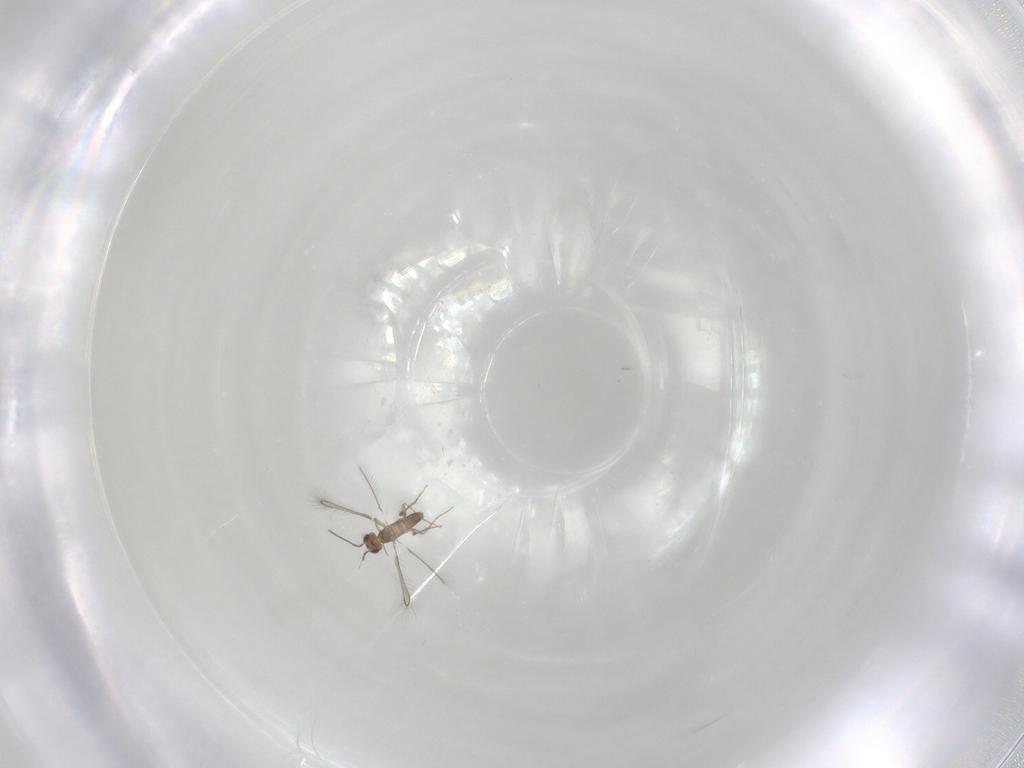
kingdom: Animalia
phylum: Arthropoda
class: Insecta
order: Hymenoptera
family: Mymaridae
